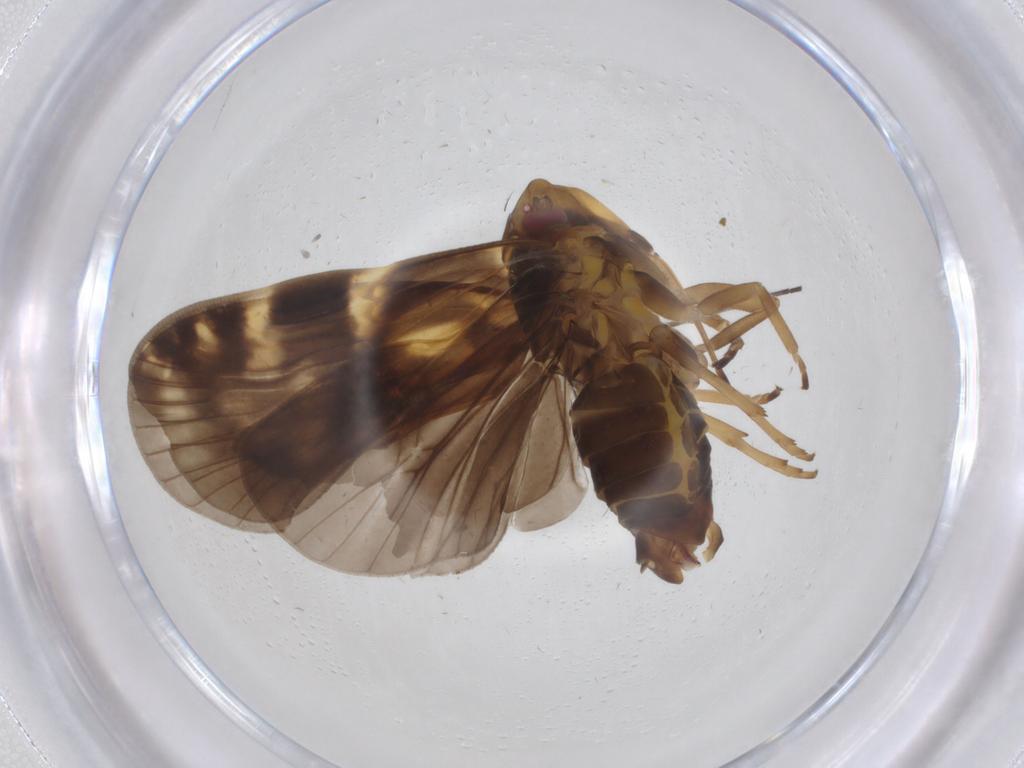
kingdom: Animalia
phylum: Arthropoda
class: Insecta
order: Hemiptera
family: Cixiidae
